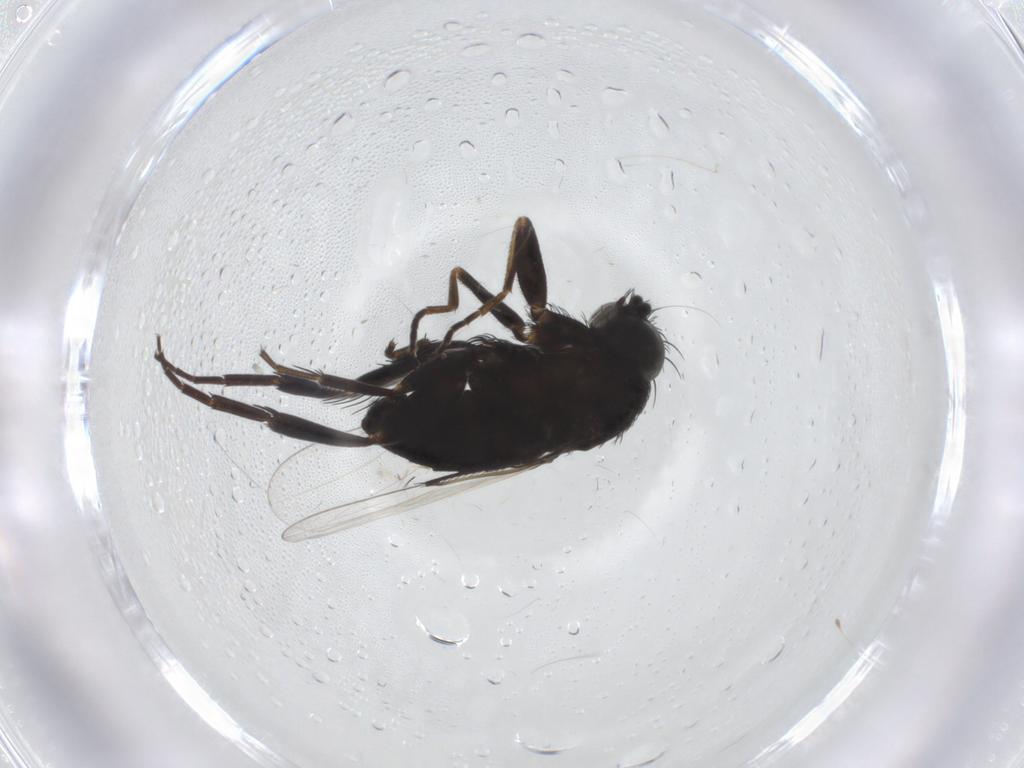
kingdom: Animalia
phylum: Arthropoda
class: Insecta
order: Diptera
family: Phoridae
